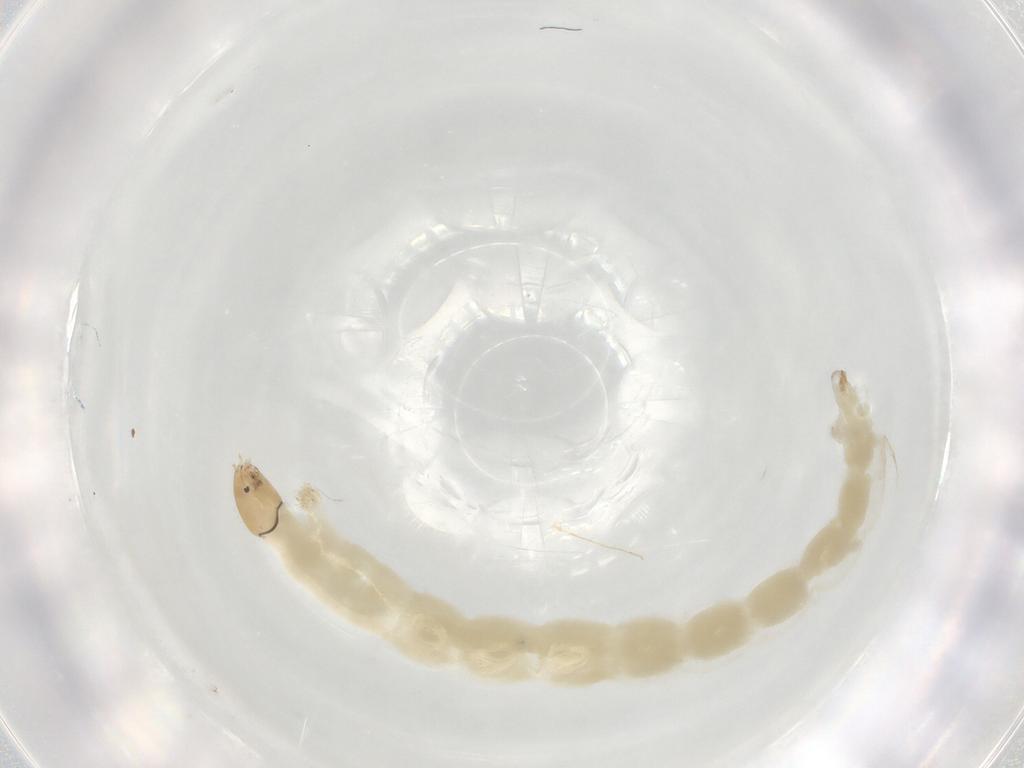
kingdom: Animalia
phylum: Arthropoda
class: Insecta
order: Diptera
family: Chironomidae
